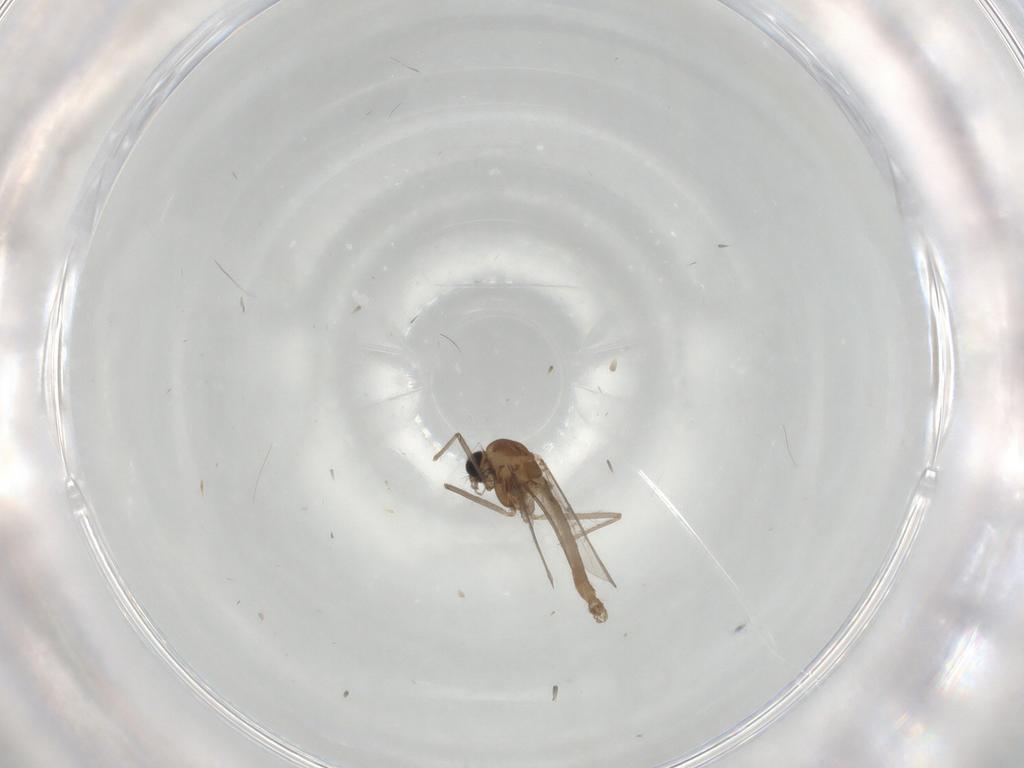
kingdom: Animalia
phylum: Arthropoda
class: Insecta
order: Diptera
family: Chironomidae
